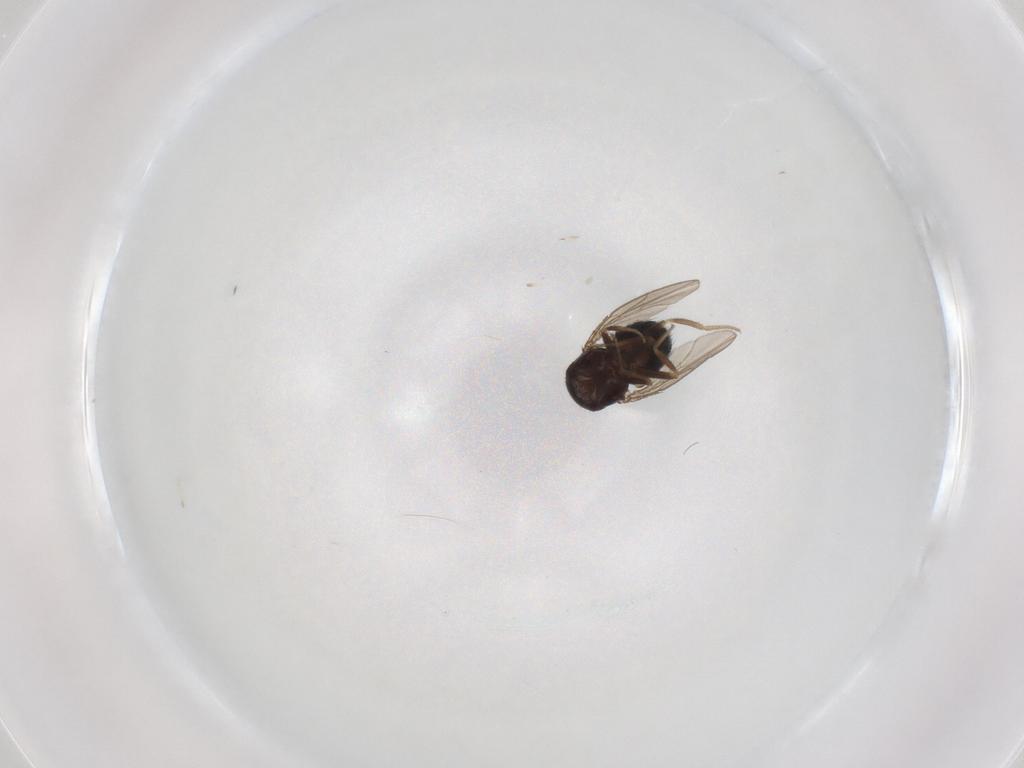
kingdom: Animalia
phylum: Arthropoda
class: Insecta
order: Diptera
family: Drosophilidae
